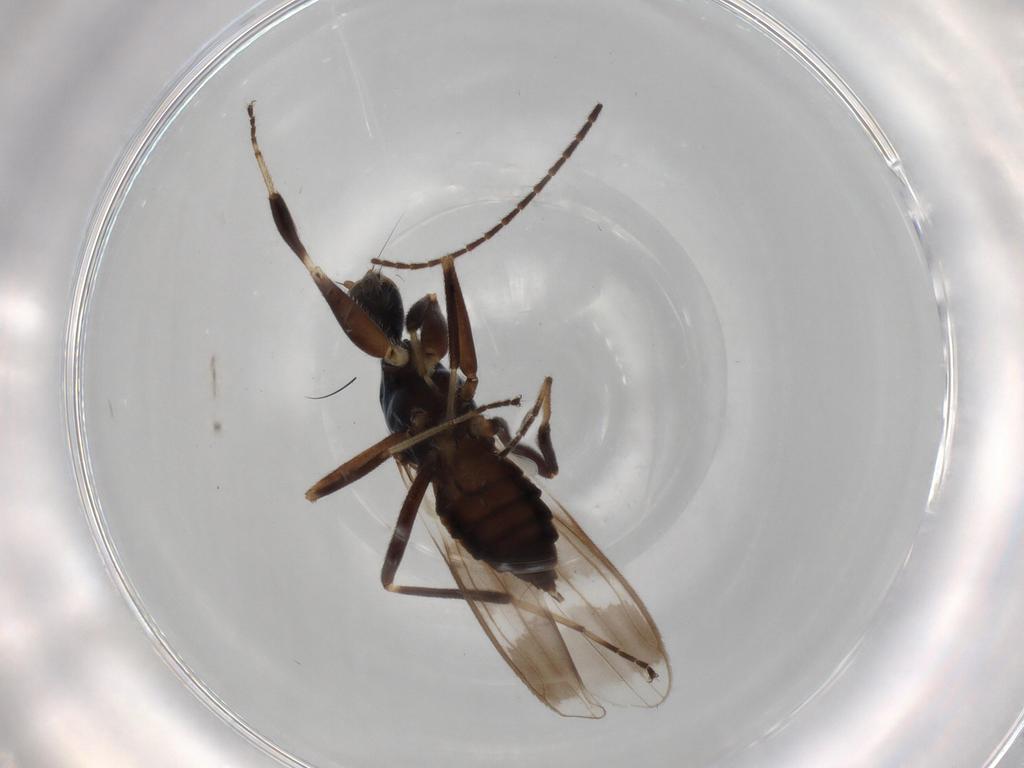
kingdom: Animalia
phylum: Arthropoda
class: Insecta
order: Diptera
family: Hybotidae
